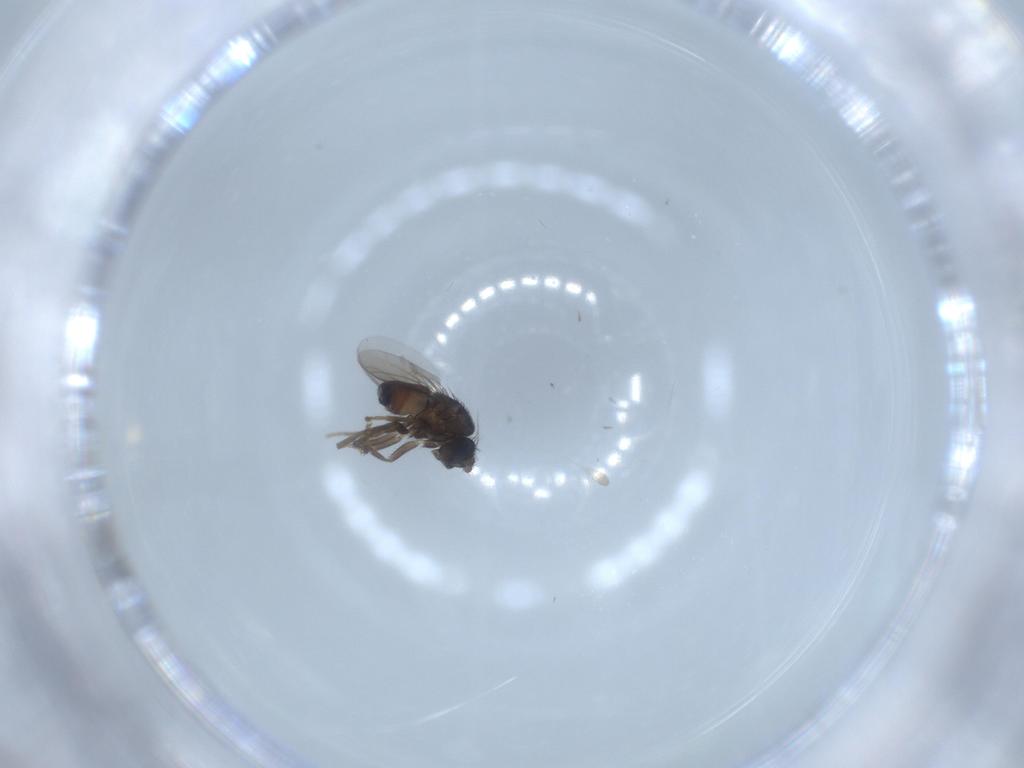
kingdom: Animalia
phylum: Arthropoda
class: Insecta
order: Diptera
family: Sphaeroceridae
